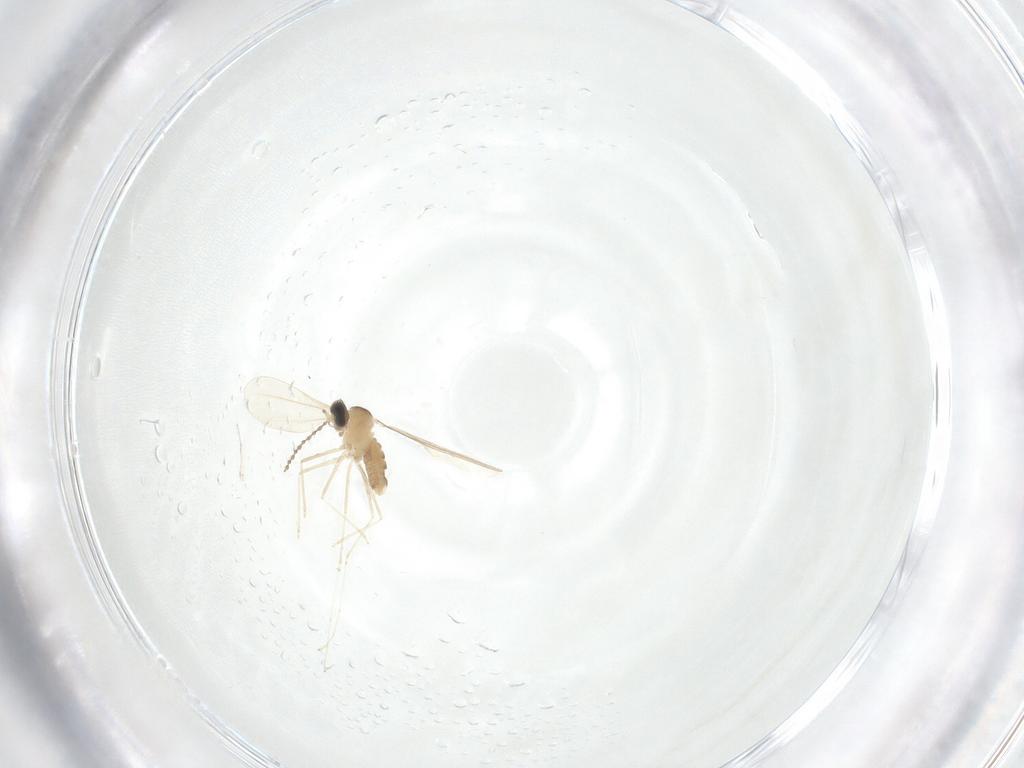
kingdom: Animalia
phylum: Arthropoda
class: Insecta
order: Diptera
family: Cecidomyiidae
